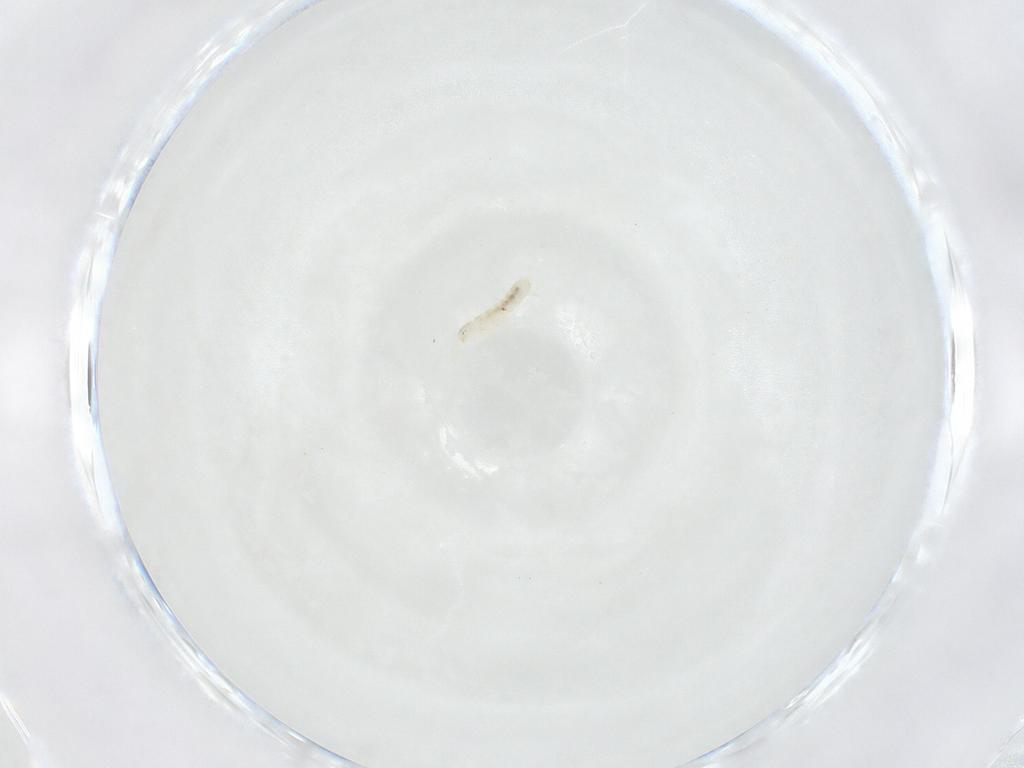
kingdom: Animalia
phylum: Arthropoda
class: Collembola
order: Entomobryomorpha
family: Isotomidae
